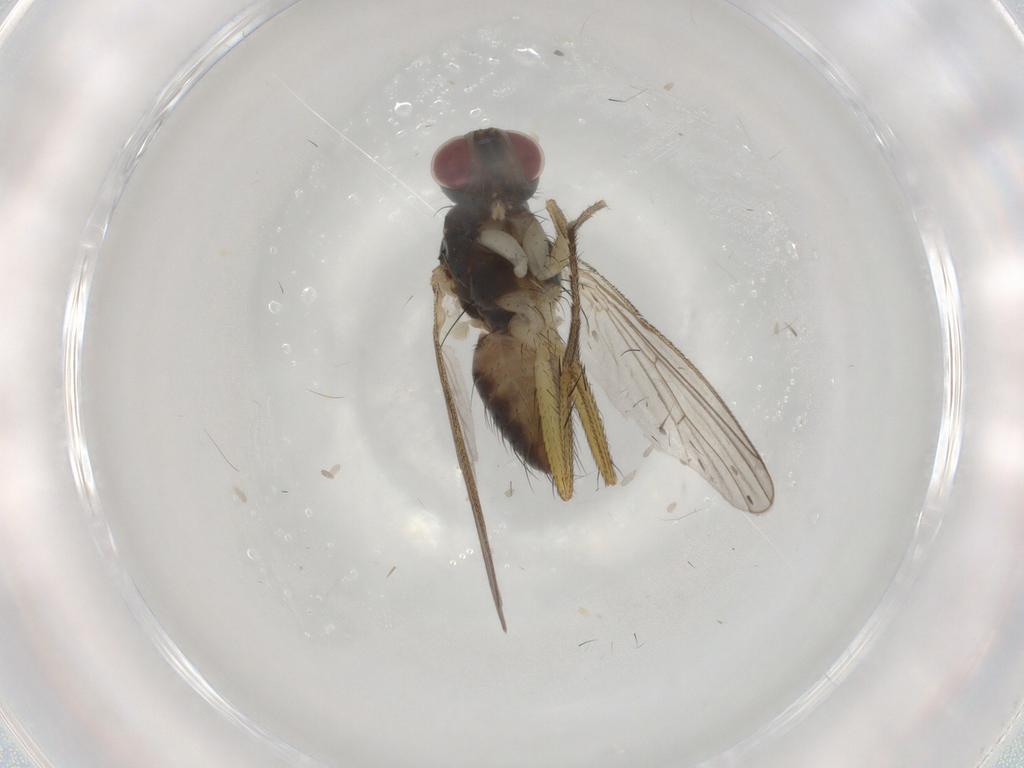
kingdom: Animalia
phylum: Arthropoda
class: Insecta
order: Diptera
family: Muscidae
